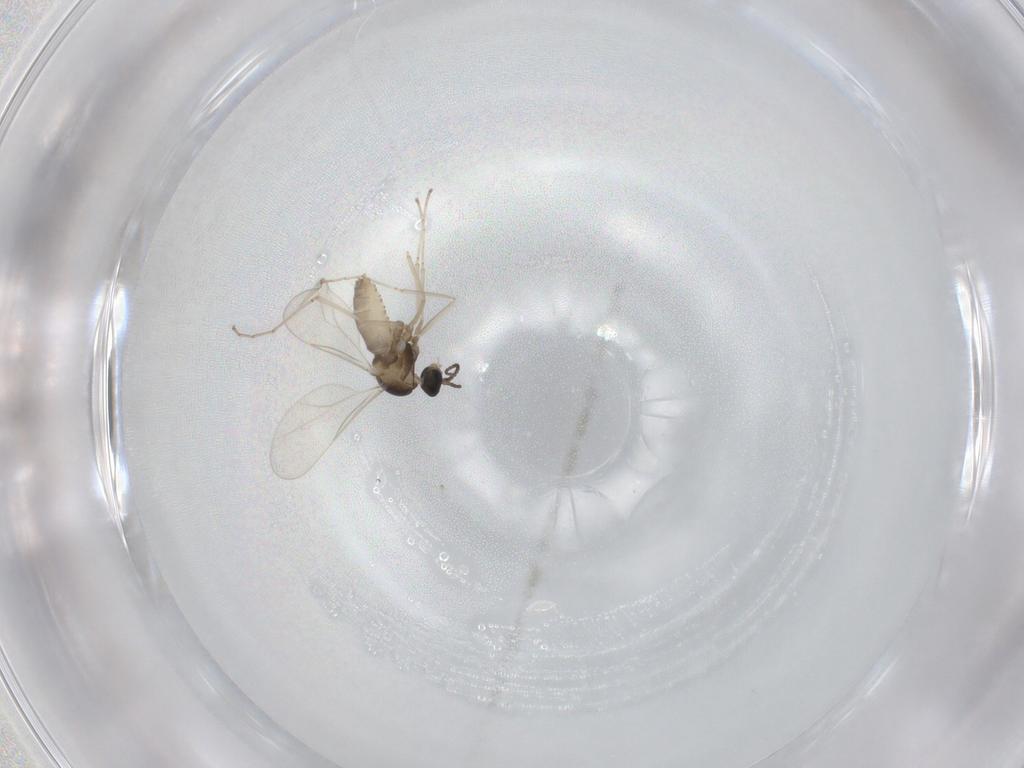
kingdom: Animalia
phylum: Arthropoda
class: Insecta
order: Diptera
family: Cecidomyiidae
